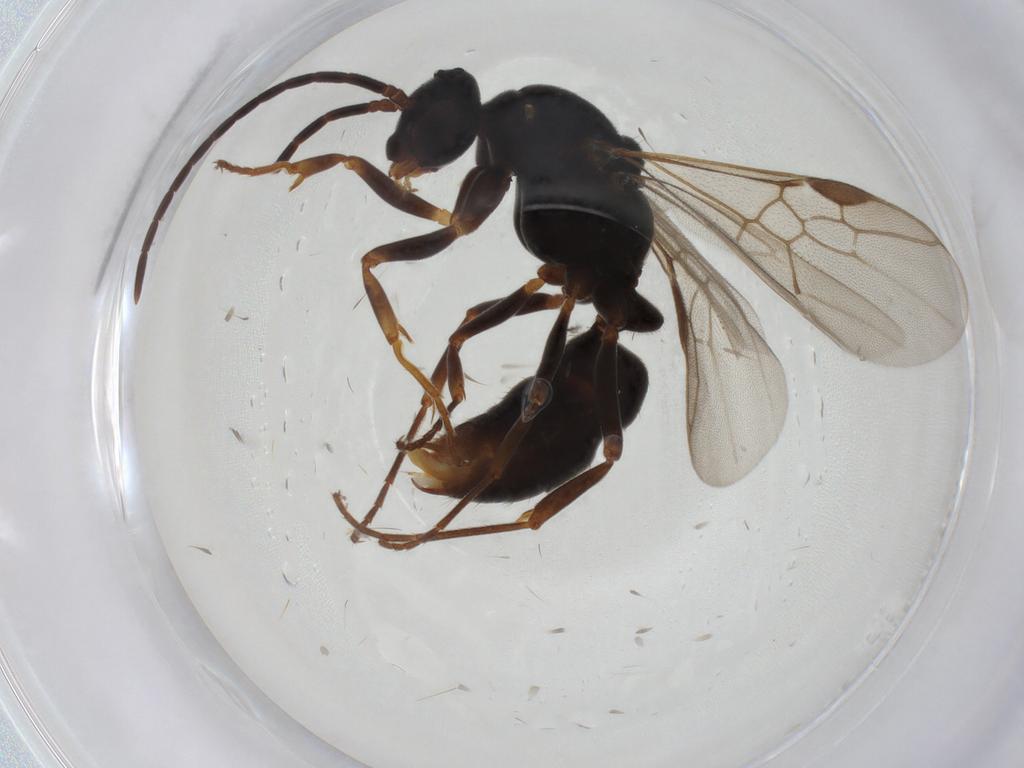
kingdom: Animalia
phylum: Arthropoda
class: Insecta
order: Hymenoptera
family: Formicidae
